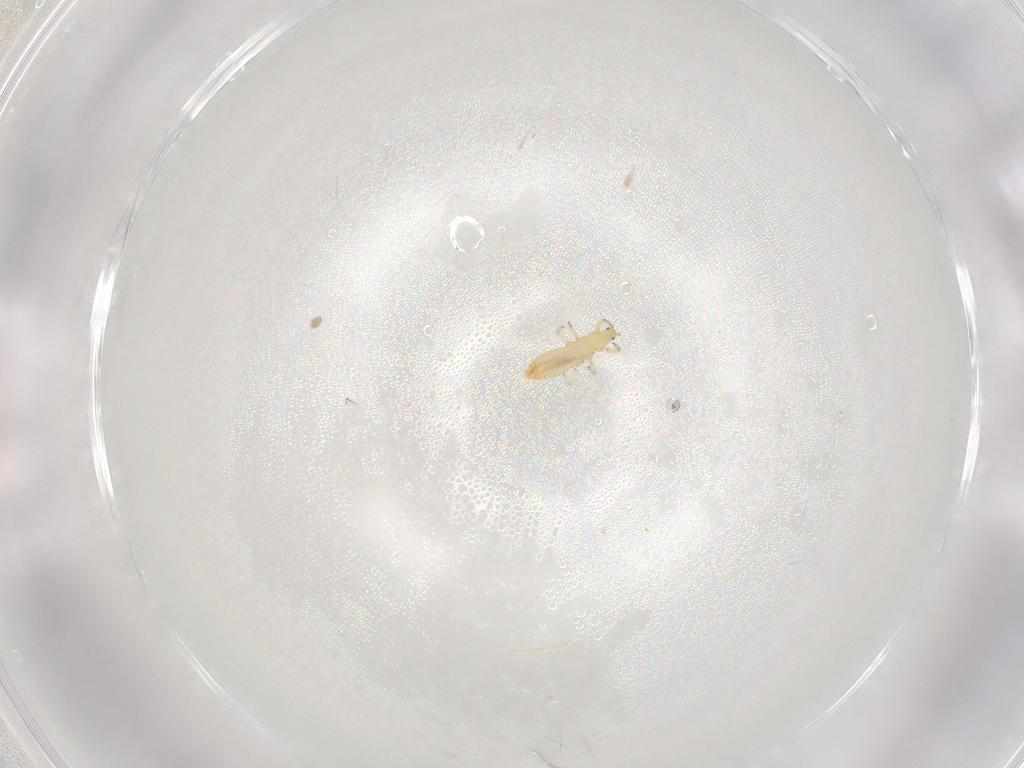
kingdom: Animalia
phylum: Arthropoda
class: Insecta
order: Thysanoptera
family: Aeolothripidae
